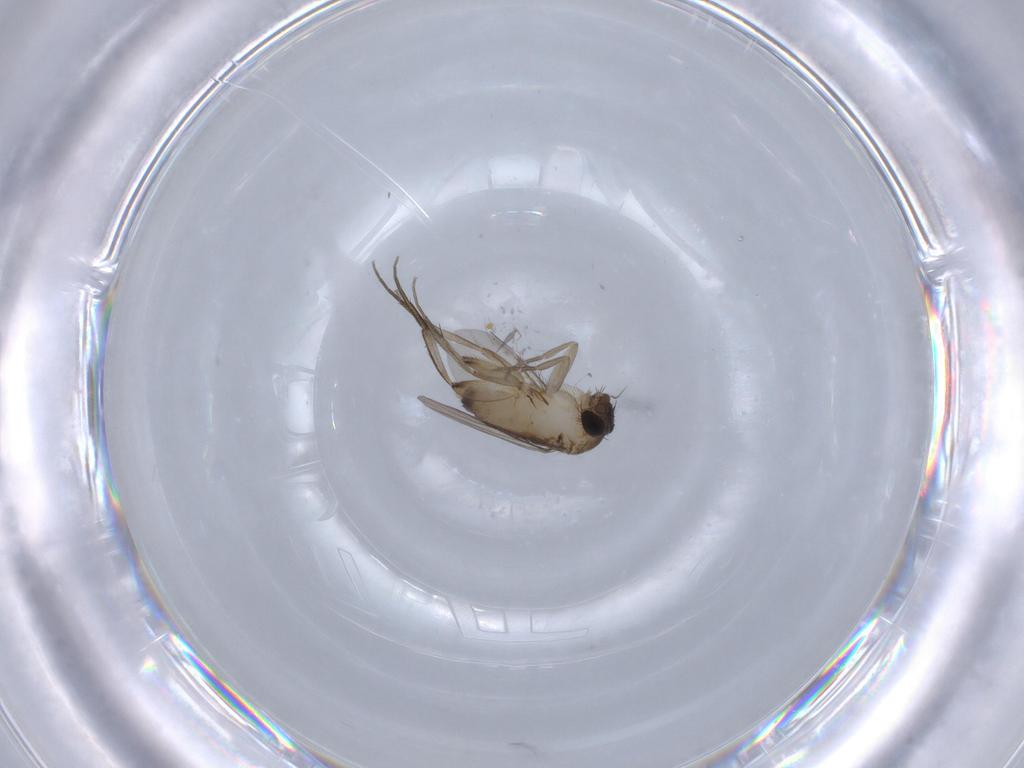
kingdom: Animalia
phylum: Arthropoda
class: Insecta
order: Diptera
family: Phoridae
